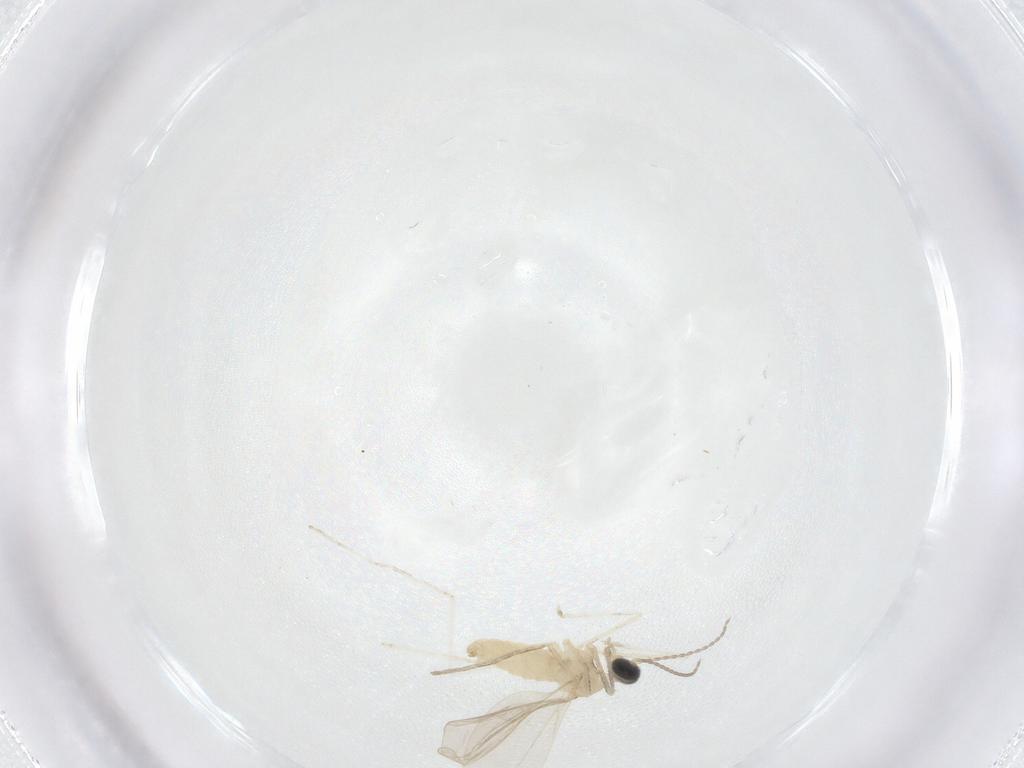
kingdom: Animalia
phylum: Arthropoda
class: Insecta
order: Diptera
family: Cecidomyiidae
